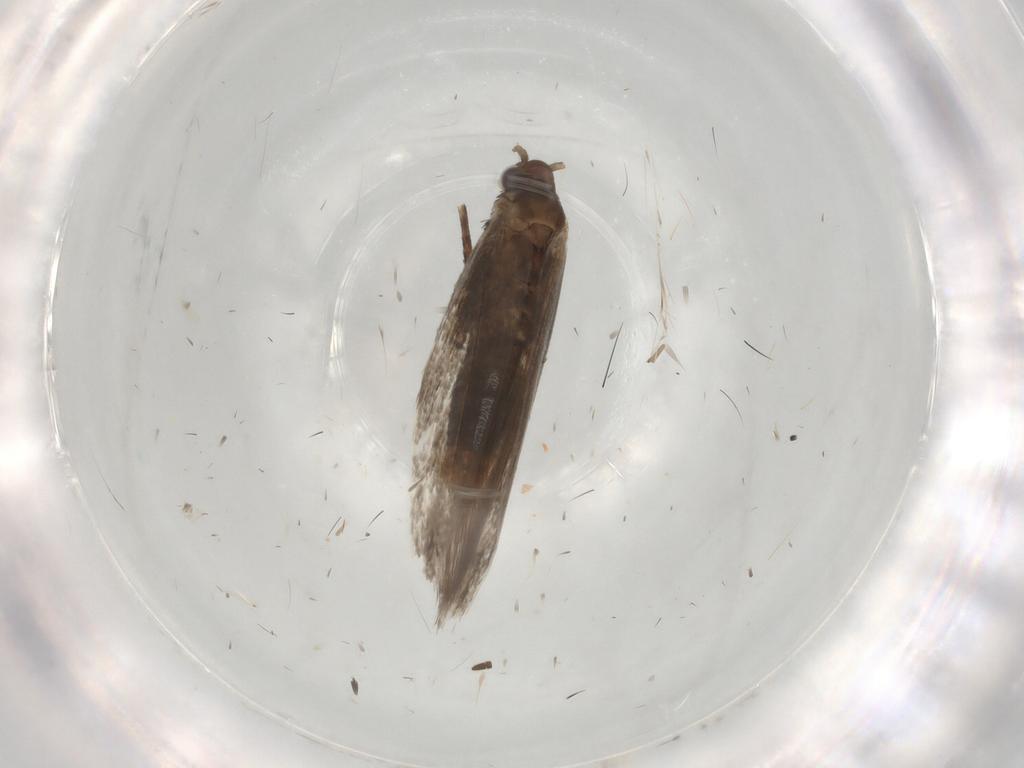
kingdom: Animalia
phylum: Arthropoda
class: Insecta
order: Lepidoptera
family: Gracillariidae
